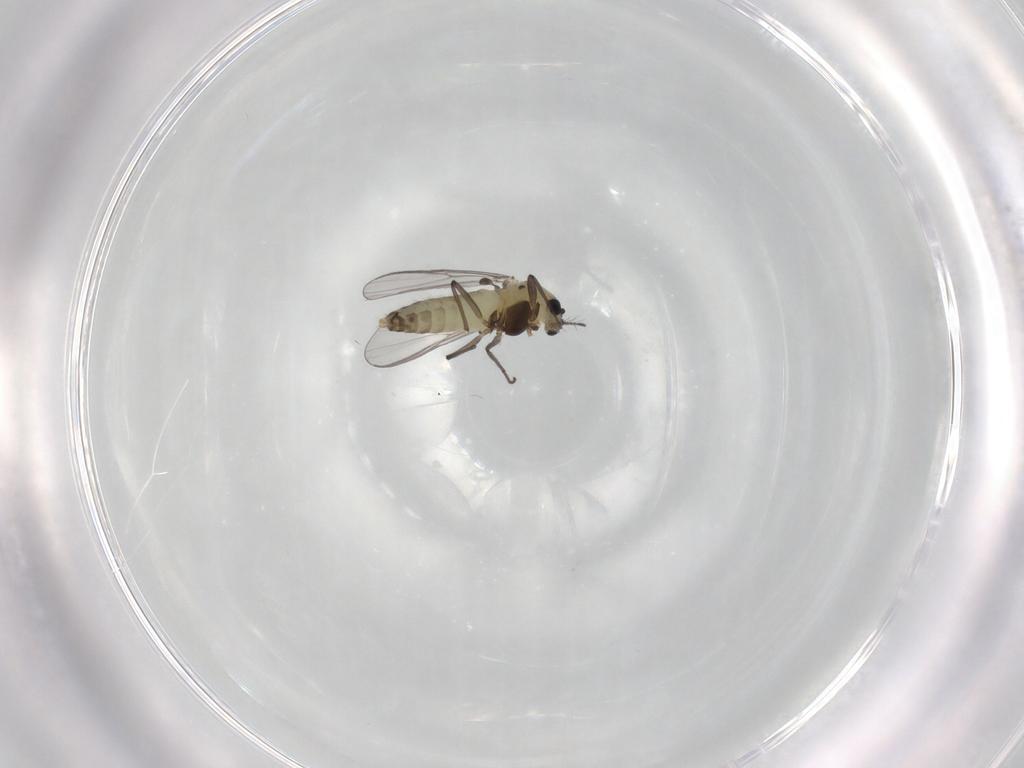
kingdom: Animalia
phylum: Arthropoda
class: Insecta
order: Diptera
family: Chironomidae
